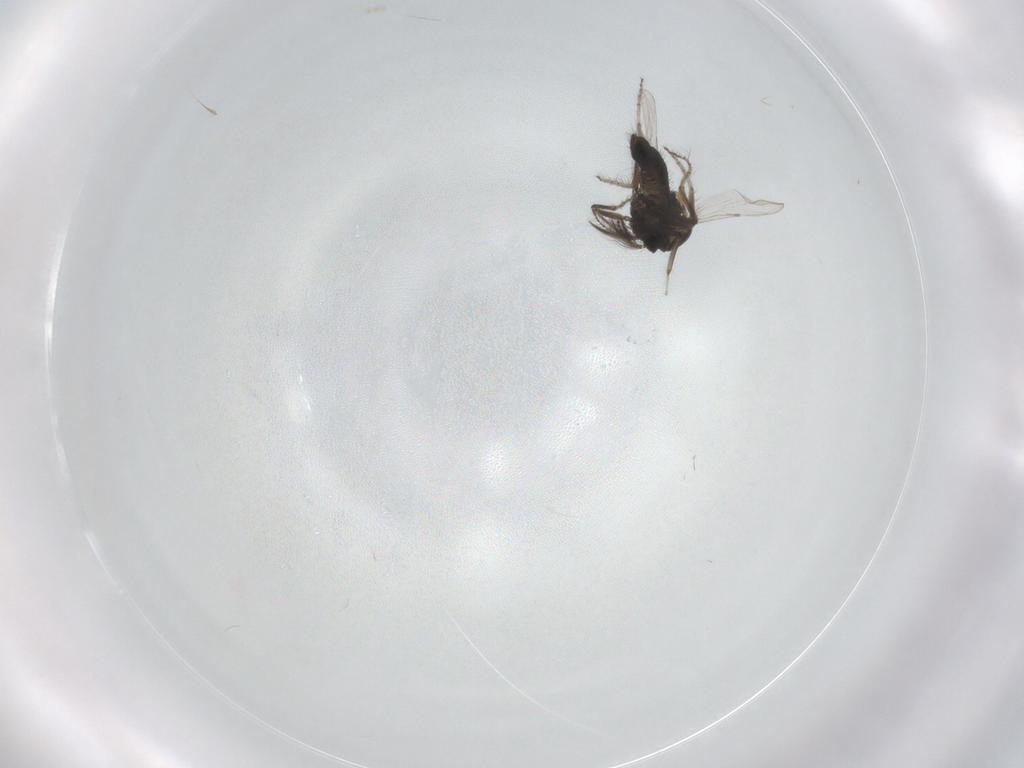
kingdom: Animalia
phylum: Arthropoda
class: Insecta
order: Diptera
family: Ceratopogonidae
